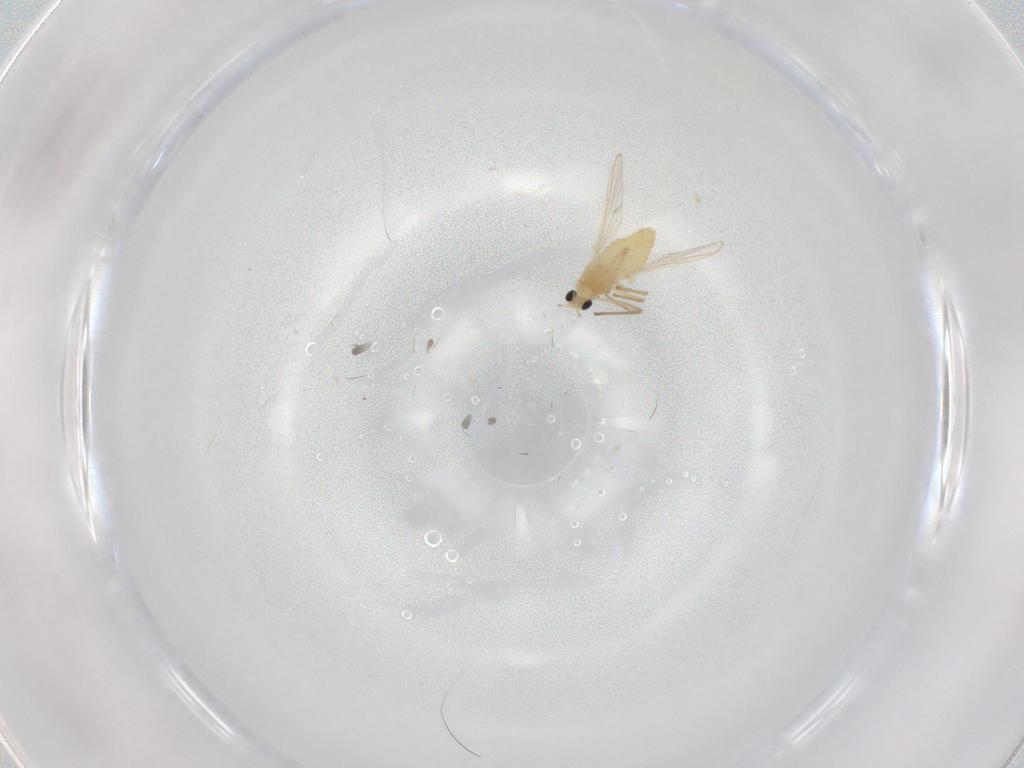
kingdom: Animalia
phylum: Arthropoda
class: Insecta
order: Diptera
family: Chironomidae
